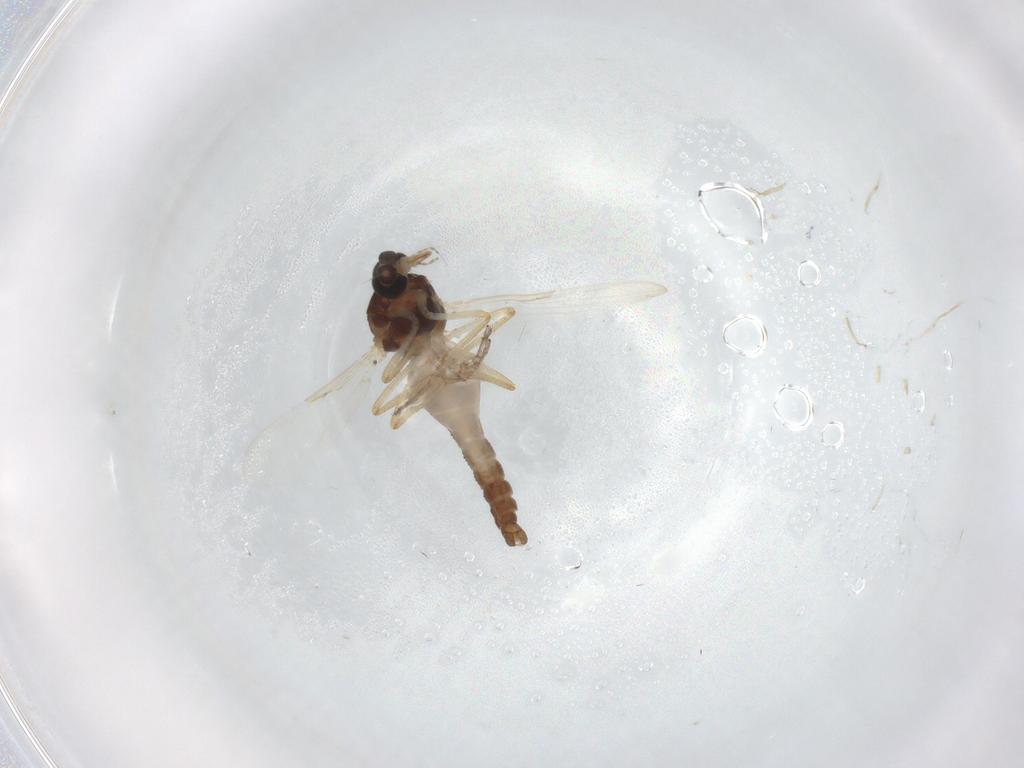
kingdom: Animalia
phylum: Arthropoda
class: Insecta
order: Diptera
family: Ceratopogonidae
